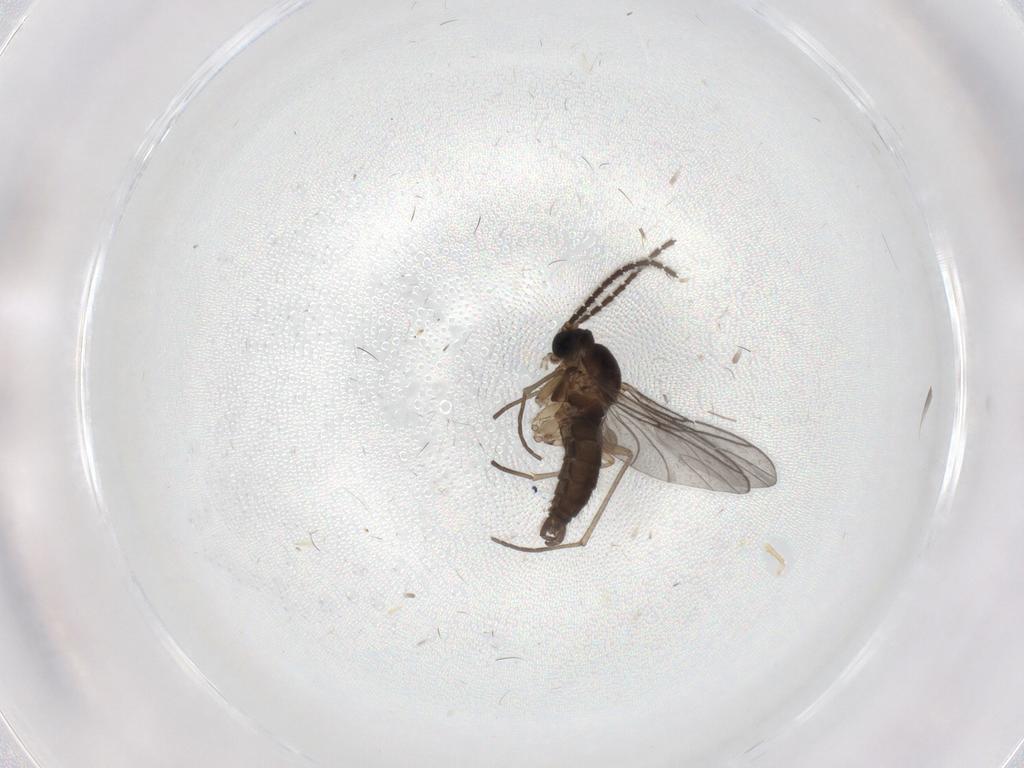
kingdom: Animalia
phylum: Arthropoda
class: Insecta
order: Diptera
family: Sciaridae
